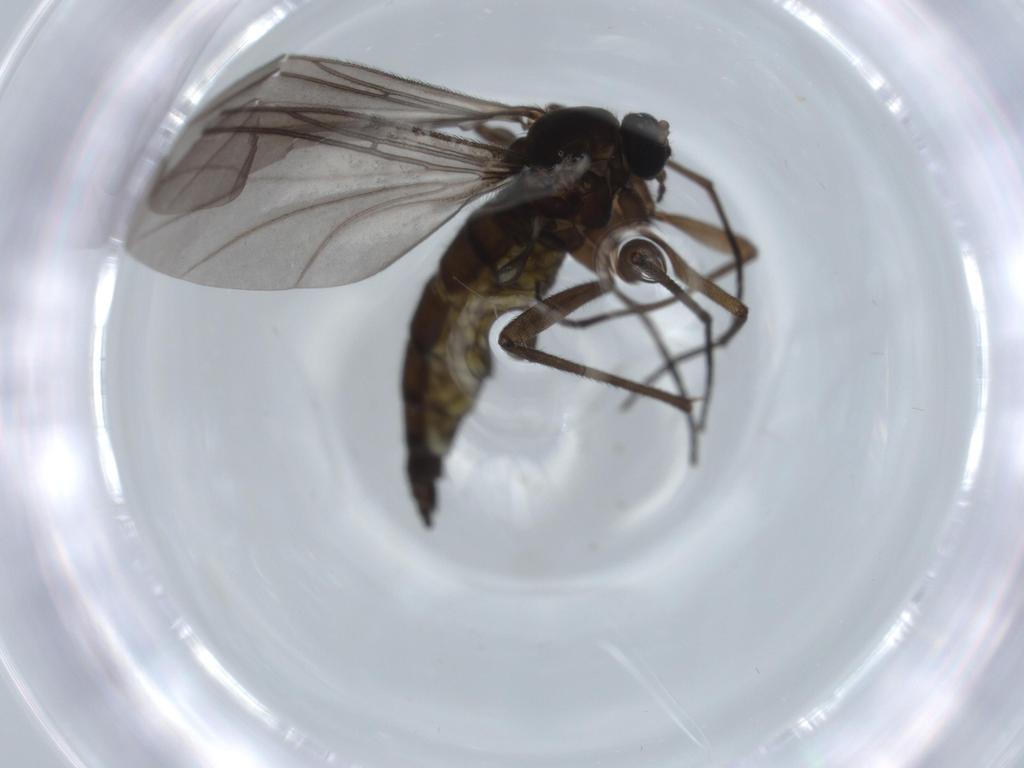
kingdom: Animalia
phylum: Arthropoda
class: Insecta
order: Diptera
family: Sciaridae
